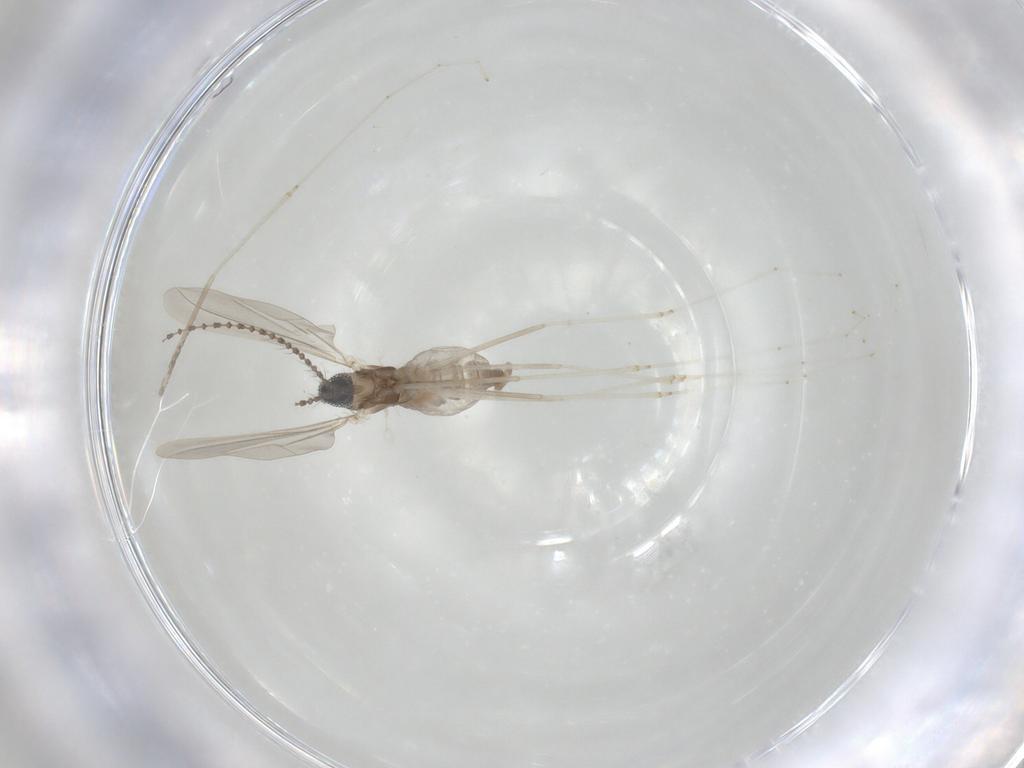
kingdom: Animalia
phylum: Arthropoda
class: Insecta
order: Diptera
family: Cecidomyiidae
